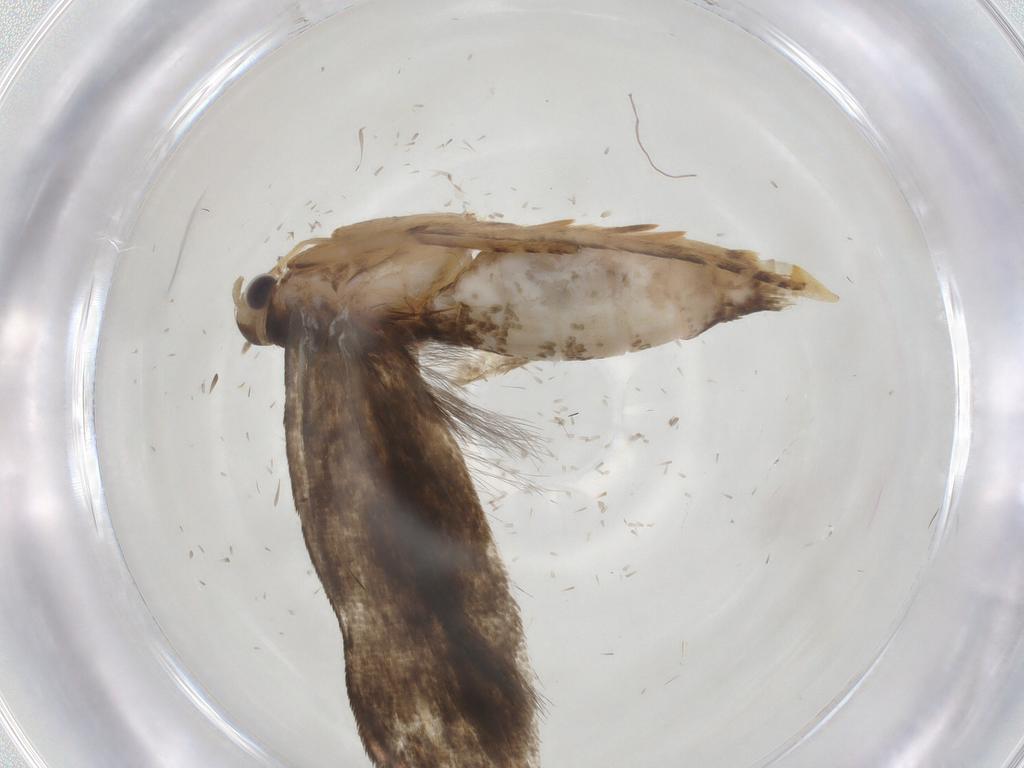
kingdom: Animalia
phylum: Arthropoda
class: Insecta
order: Lepidoptera
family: Gelechiidae
